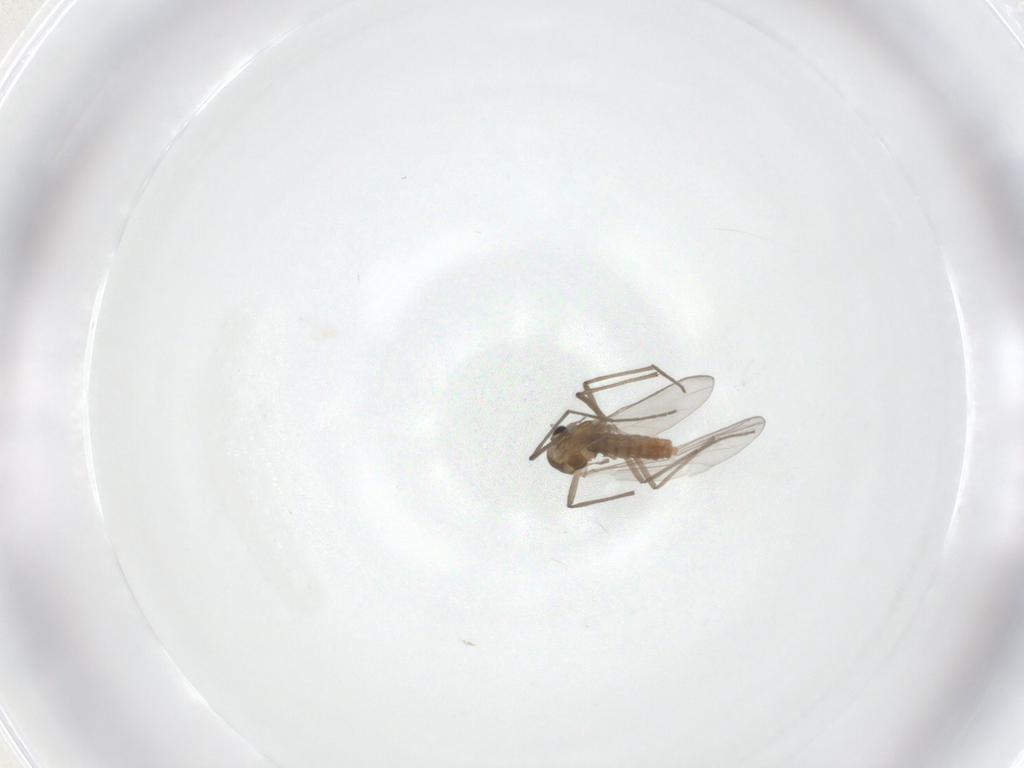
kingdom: Animalia
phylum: Arthropoda
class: Insecta
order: Diptera
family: Chironomidae
